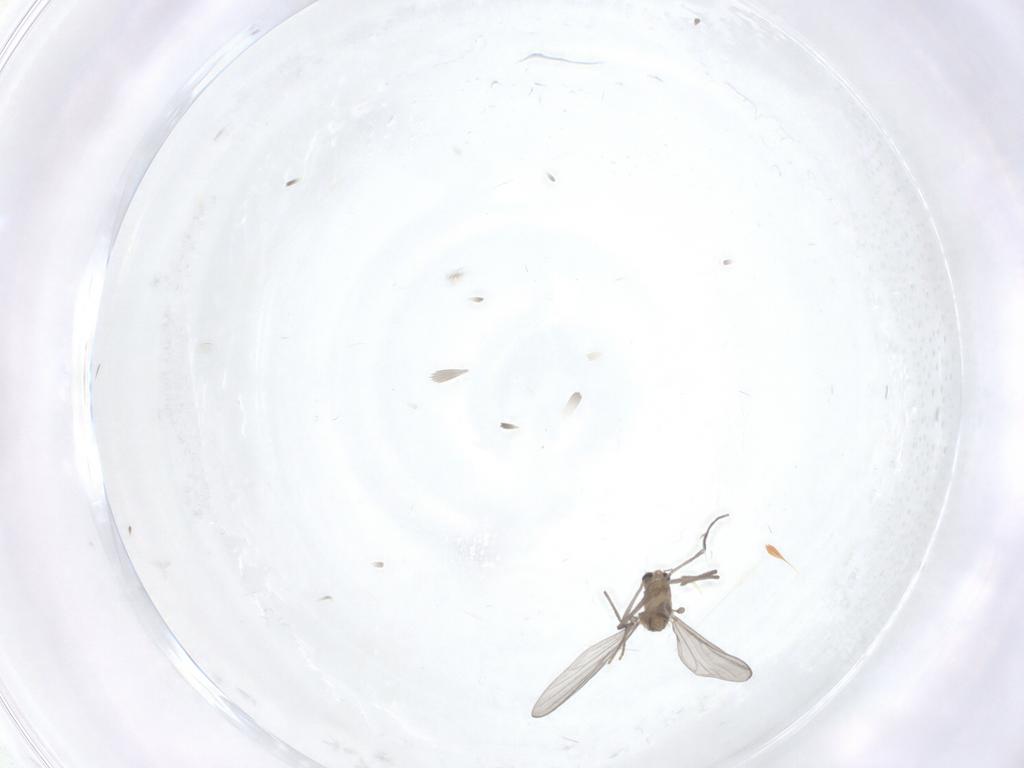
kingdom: Animalia
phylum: Arthropoda
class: Insecta
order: Diptera
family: Chironomidae
